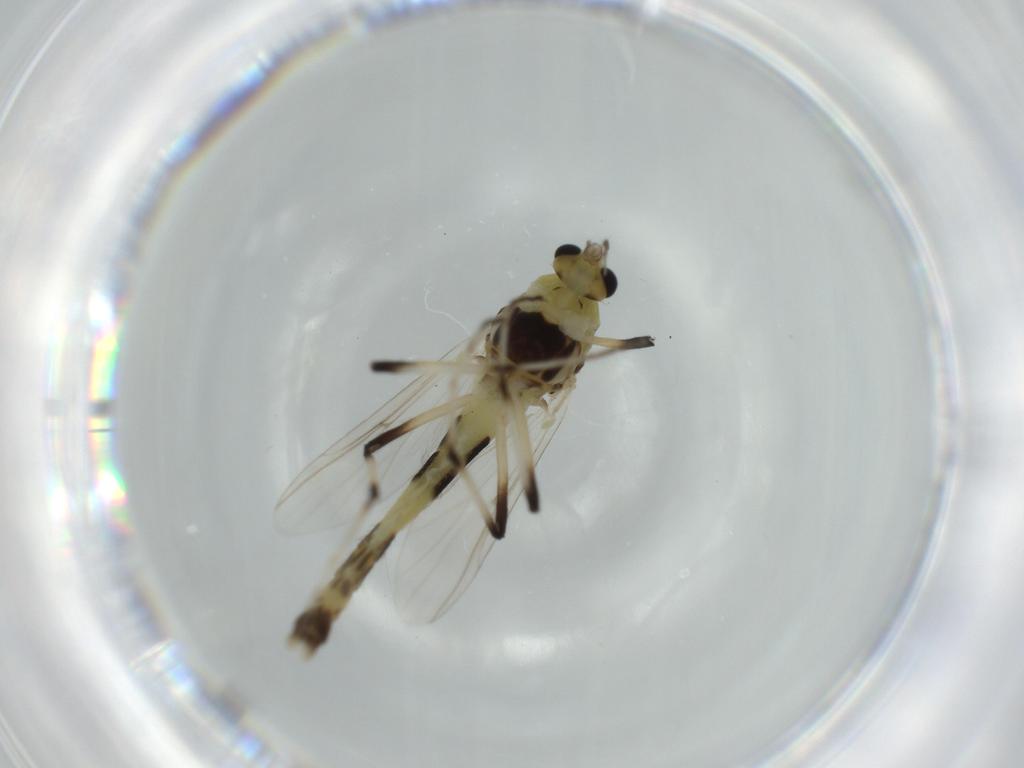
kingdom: Animalia
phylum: Arthropoda
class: Insecta
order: Diptera
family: Chironomidae
